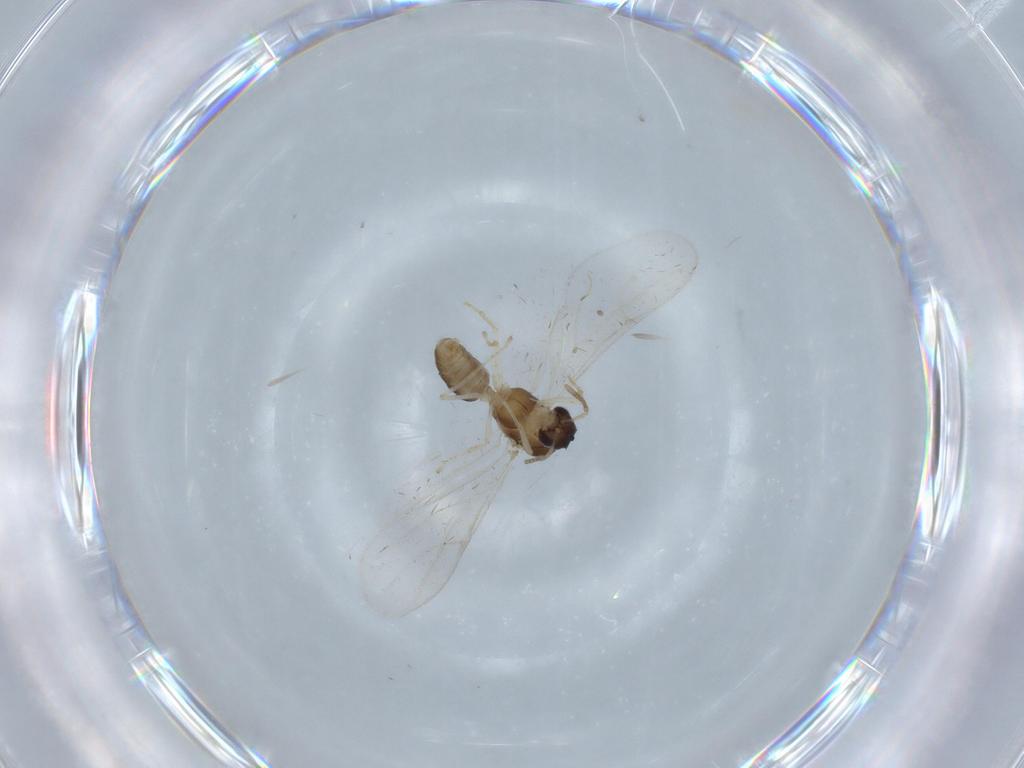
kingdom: Animalia
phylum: Arthropoda
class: Insecta
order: Hymenoptera
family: Formicidae
